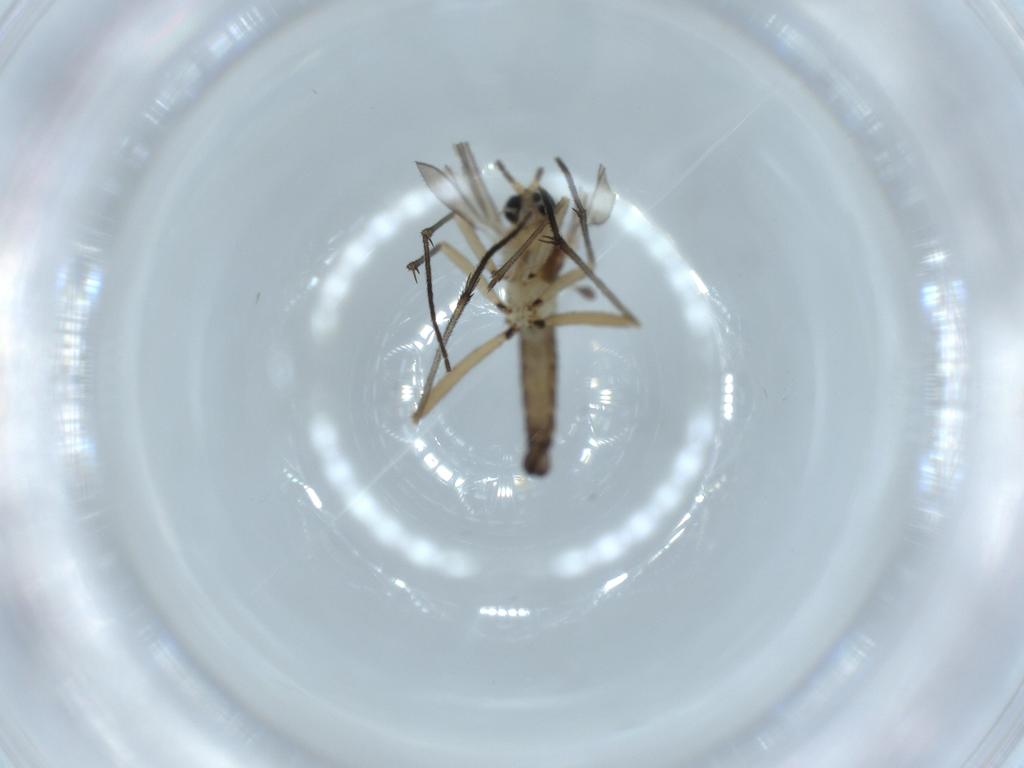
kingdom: Animalia
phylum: Arthropoda
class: Insecta
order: Diptera
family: Sciaridae
